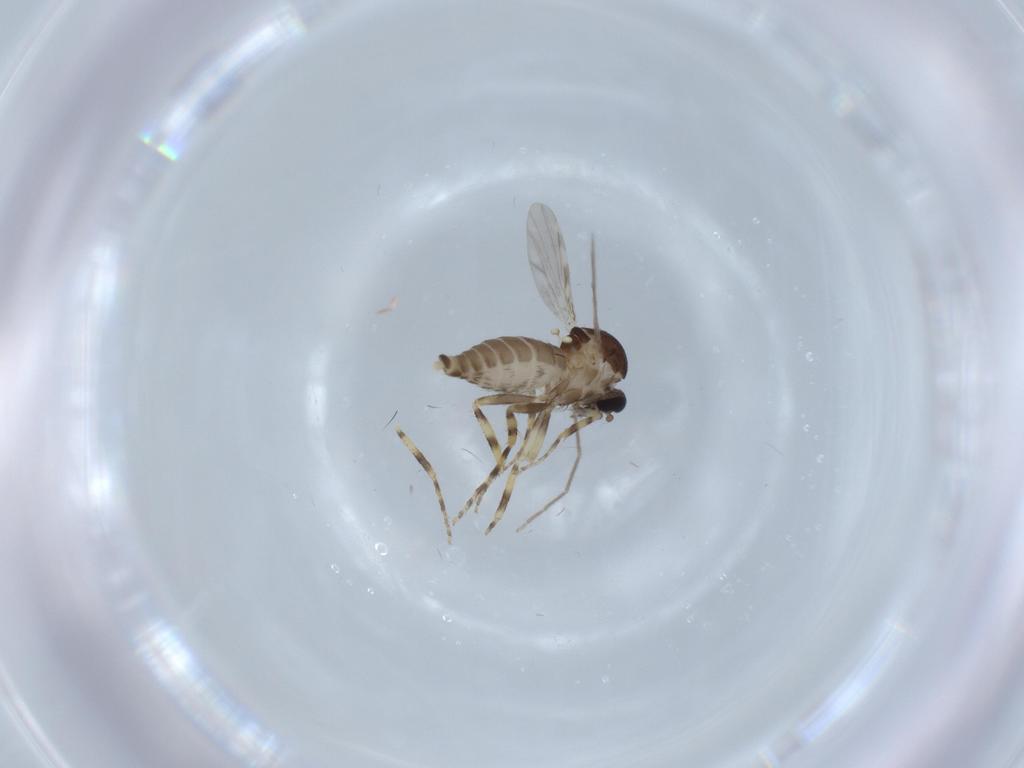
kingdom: Animalia
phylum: Arthropoda
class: Insecta
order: Diptera
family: Ceratopogonidae
